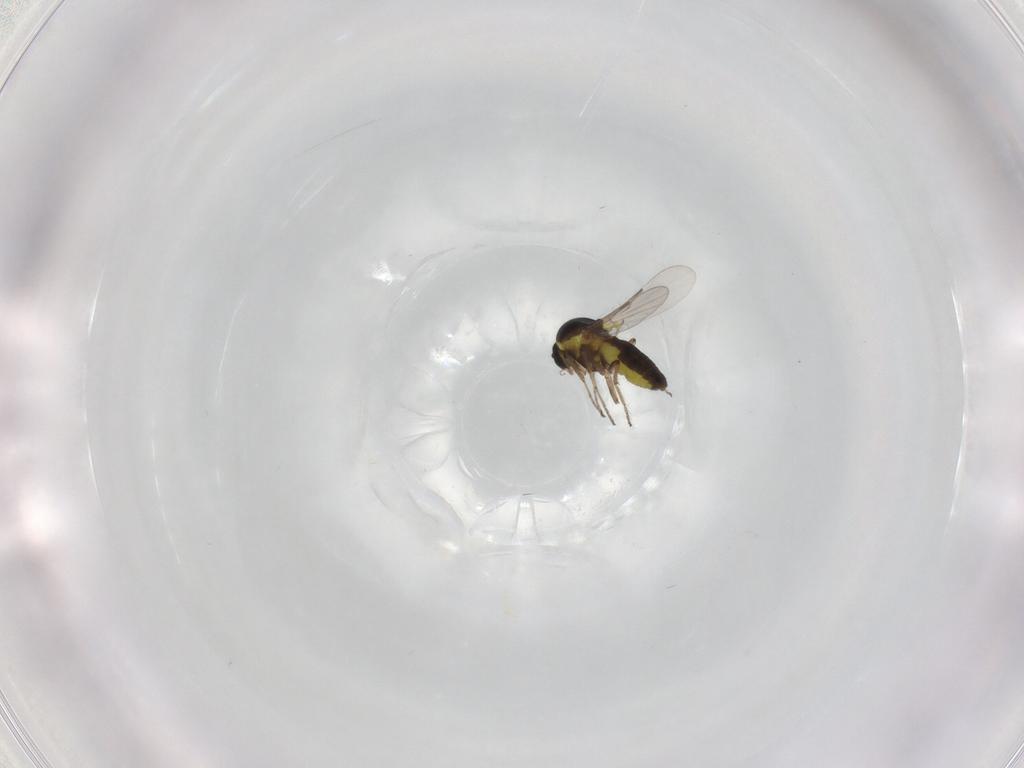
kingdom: Animalia
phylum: Arthropoda
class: Insecta
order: Diptera
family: Ceratopogonidae
